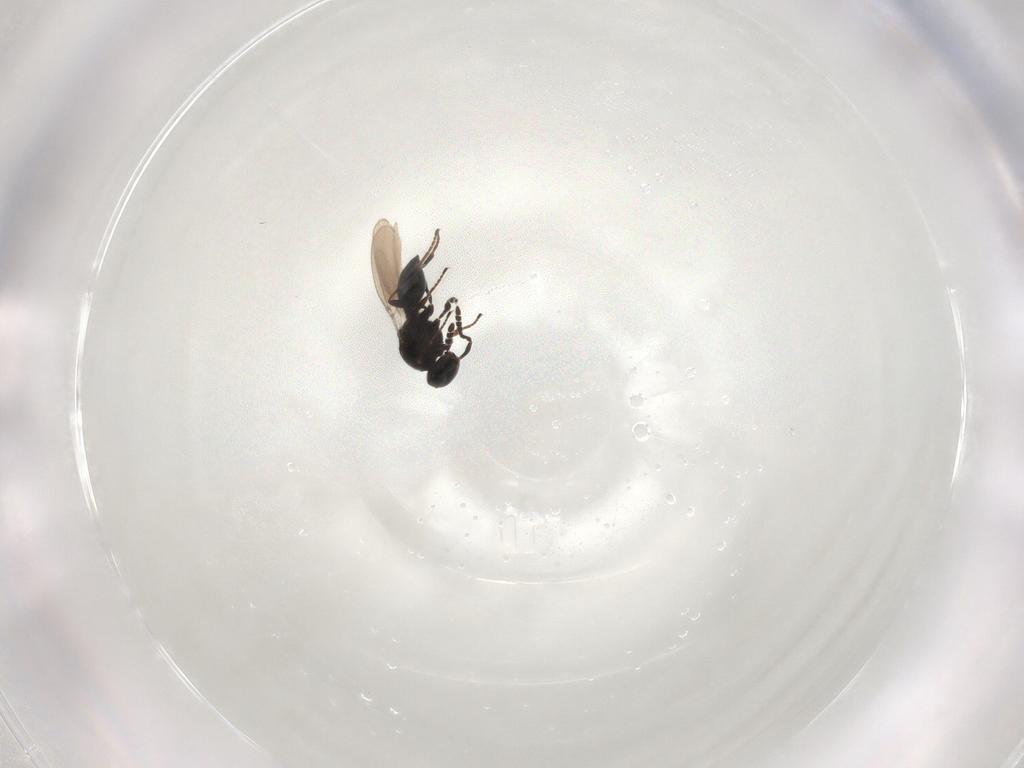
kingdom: Animalia
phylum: Arthropoda
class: Insecta
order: Hymenoptera
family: Platygastridae
